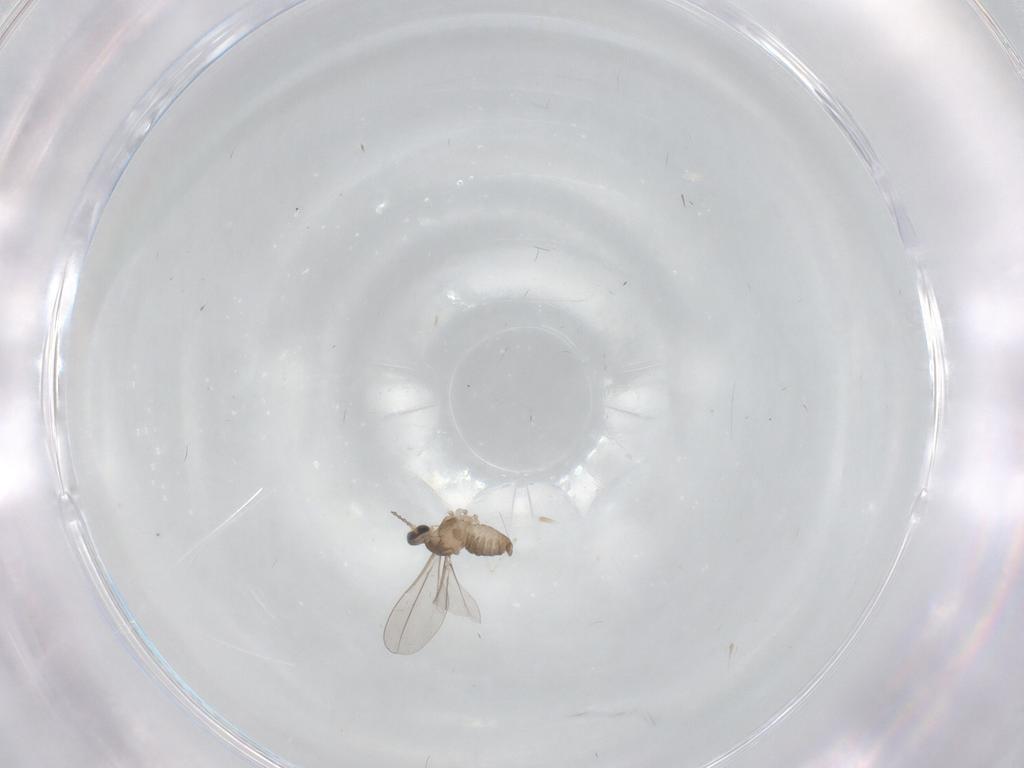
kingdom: Animalia
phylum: Arthropoda
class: Insecta
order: Diptera
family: Cecidomyiidae
